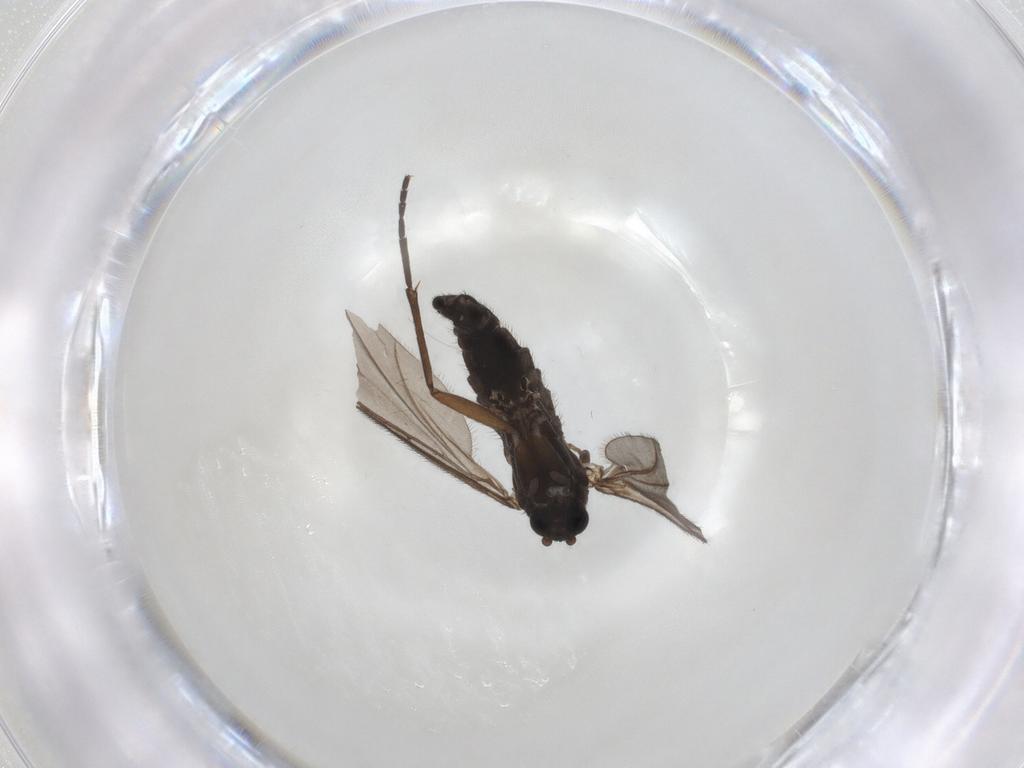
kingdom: Animalia
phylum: Arthropoda
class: Insecta
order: Diptera
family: Sciaridae
